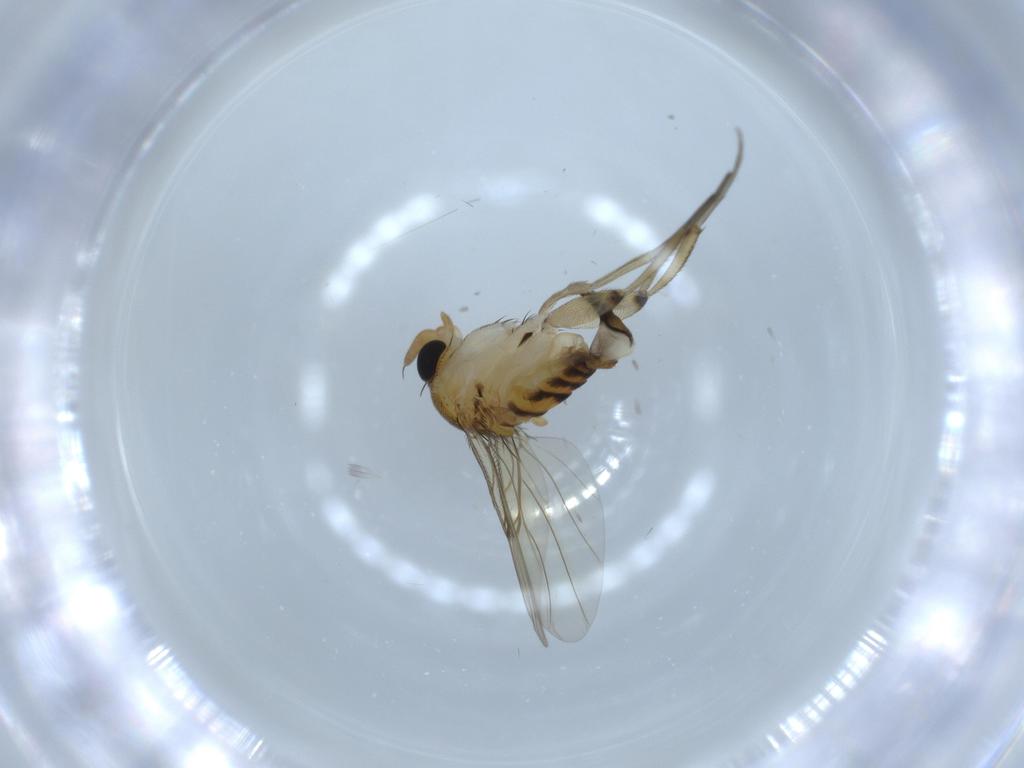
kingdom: Animalia
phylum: Arthropoda
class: Insecta
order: Diptera
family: Phoridae
